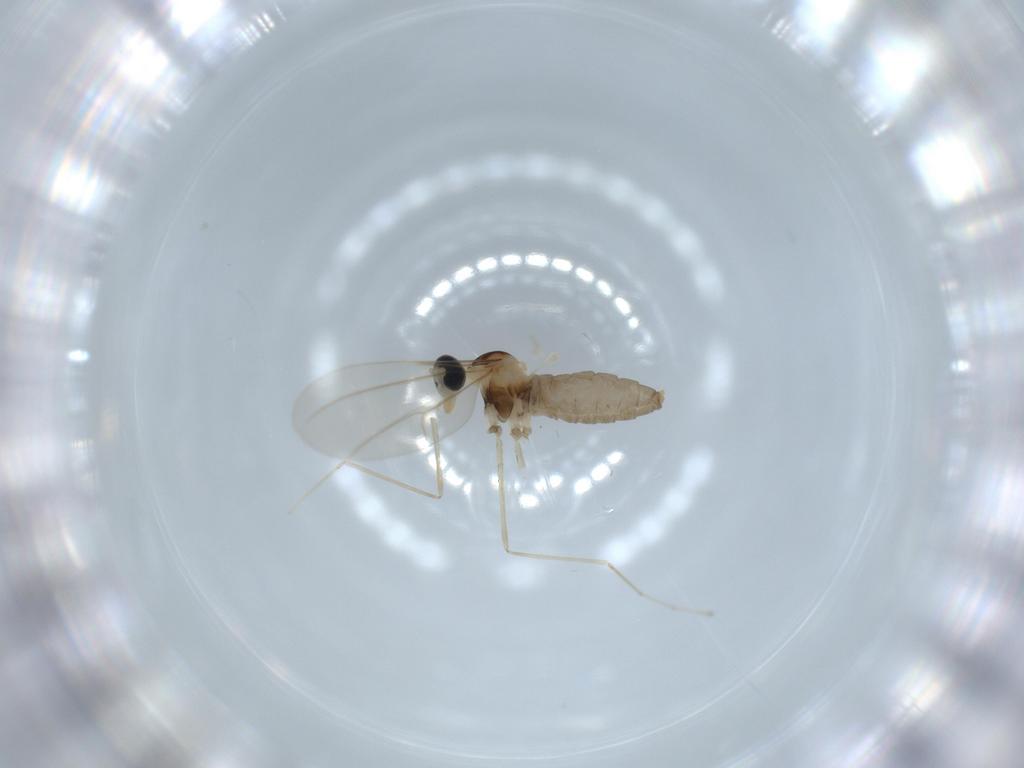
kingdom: Animalia
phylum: Arthropoda
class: Insecta
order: Diptera
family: Cecidomyiidae
